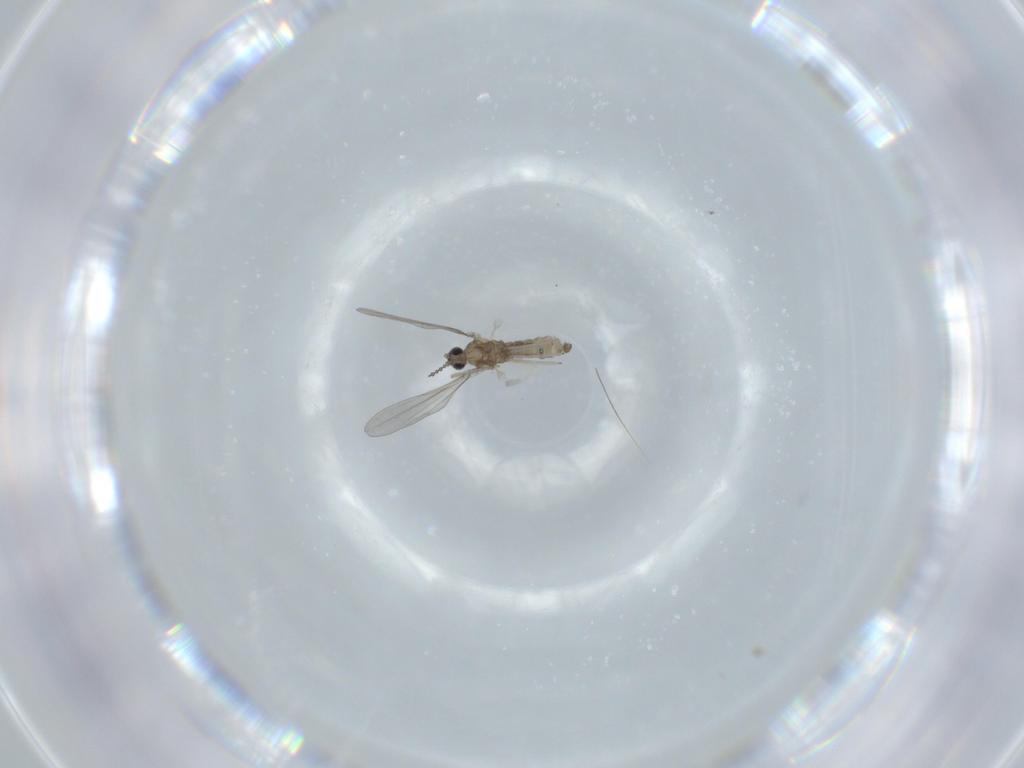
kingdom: Animalia
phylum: Arthropoda
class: Insecta
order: Diptera
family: Cecidomyiidae
